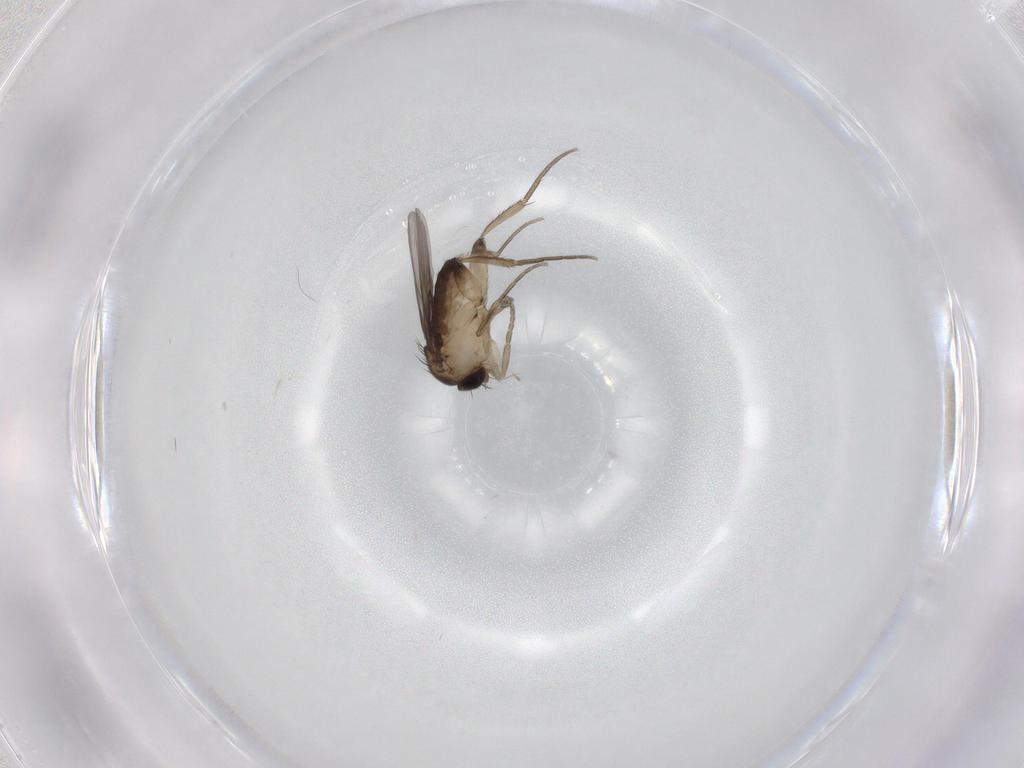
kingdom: Animalia
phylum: Arthropoda
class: Insecta
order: Diptera
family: Phoridae
